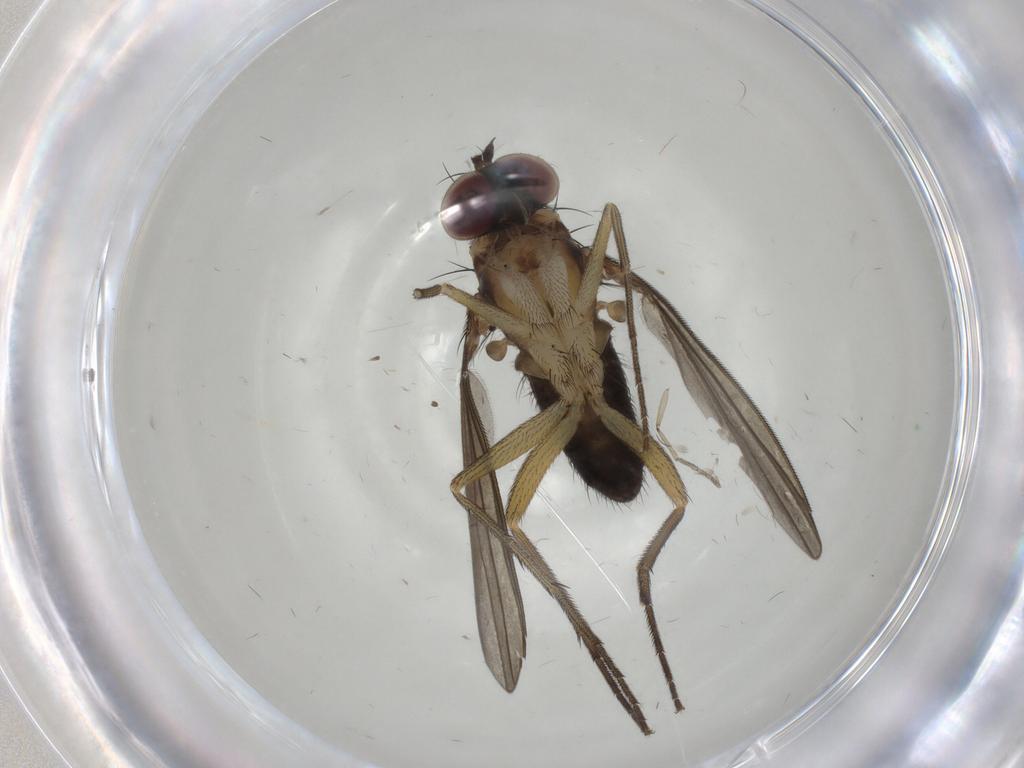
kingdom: Animalia
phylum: Arthropoda
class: Insecta
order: Diptera
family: Dolichopodidae
